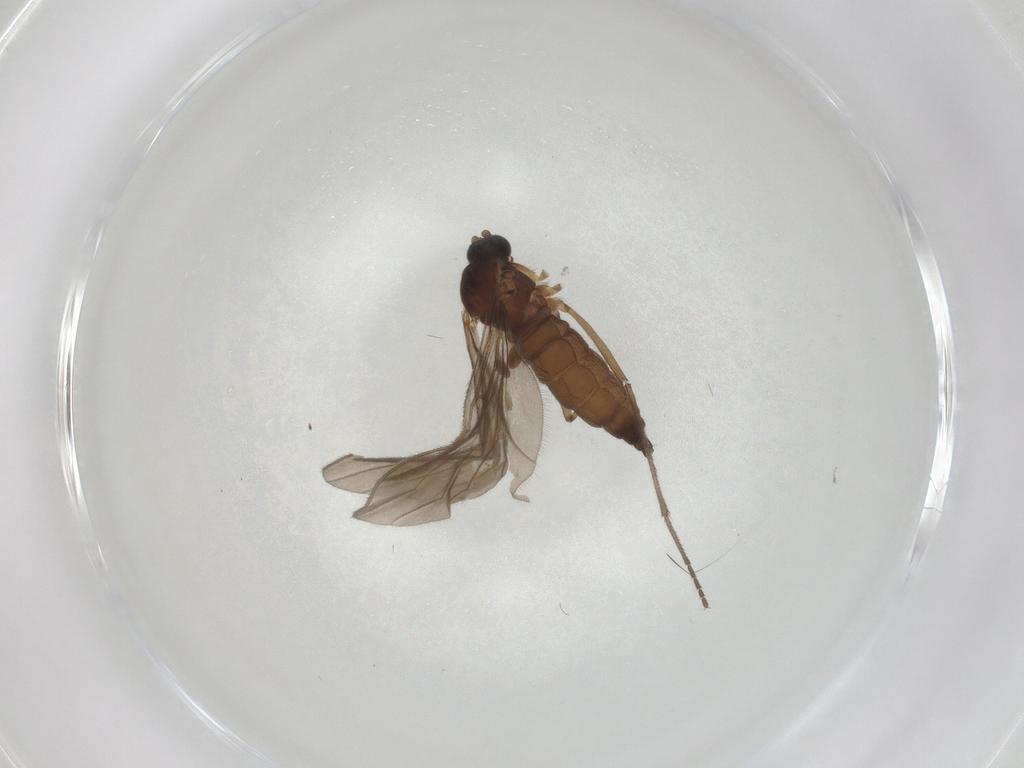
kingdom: Animalia
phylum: Arthropoda
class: Insecta
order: Diptera
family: Sciaridae
